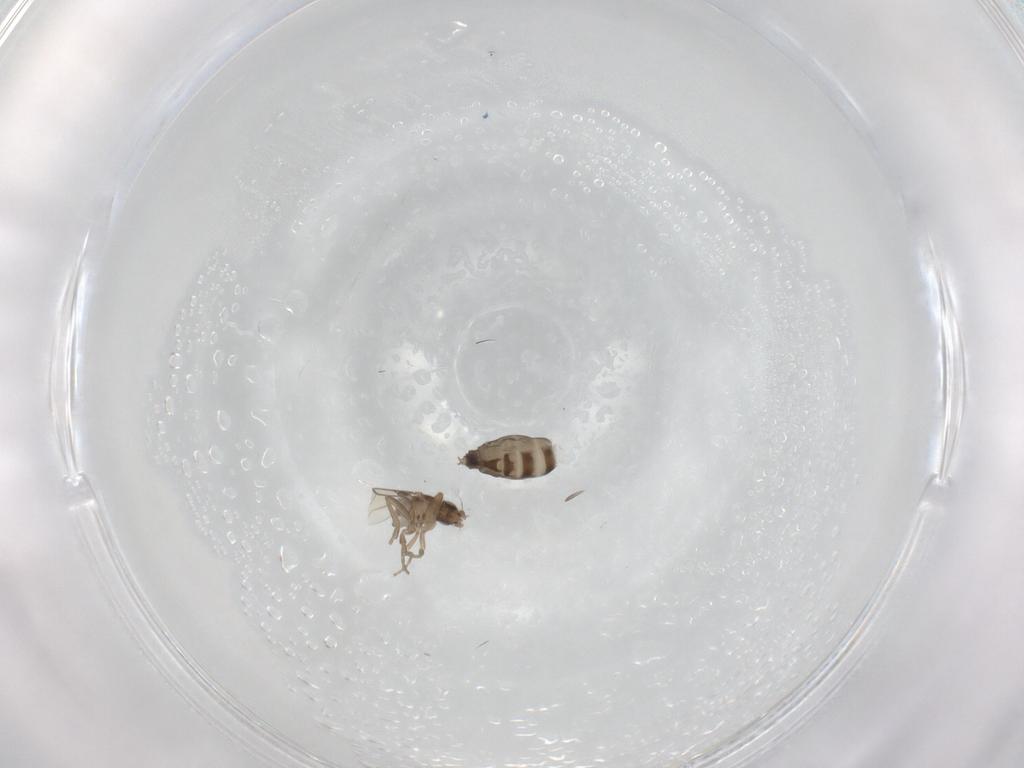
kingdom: Animalia
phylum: Arthropoda
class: Insecta
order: Diptera
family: Phoridae
